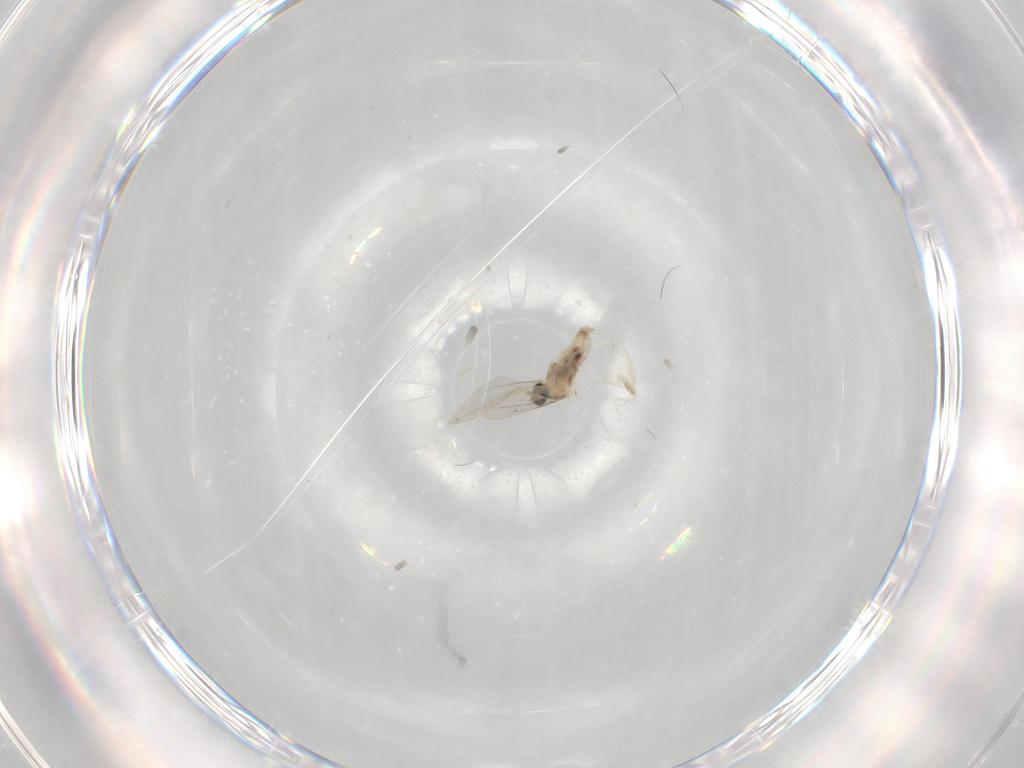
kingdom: Animalia
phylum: Arthropoda
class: Insecta
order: Diptera
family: Cecidomyiidae
